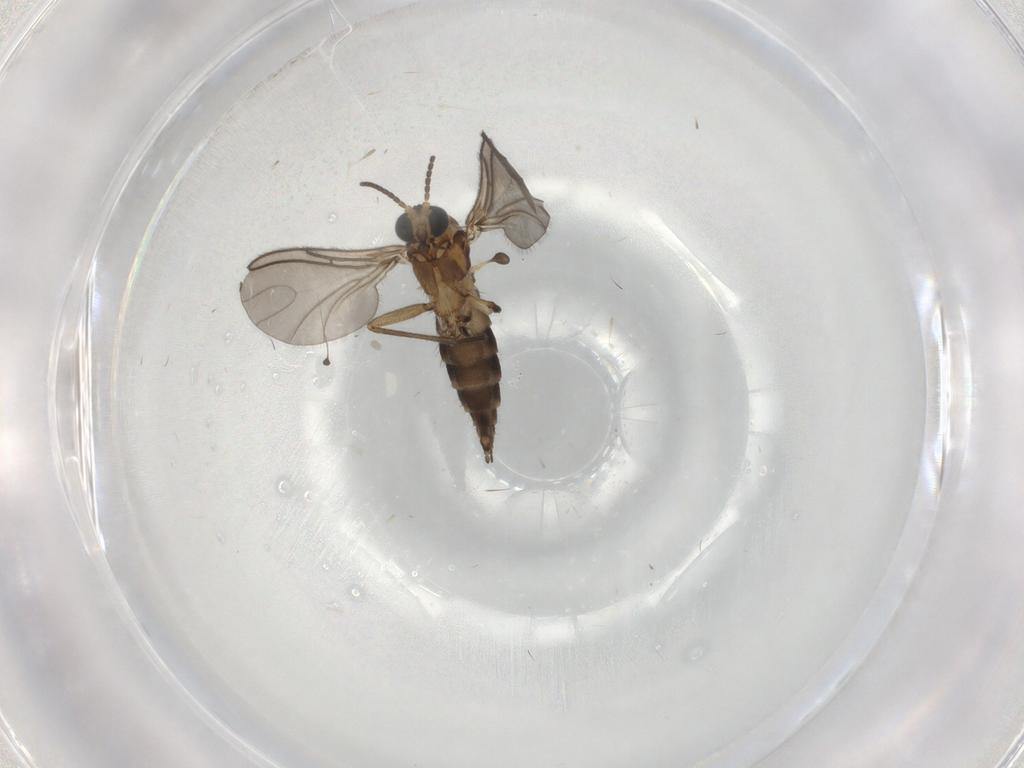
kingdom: Animalia
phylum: Arthropoda
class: Insecta
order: Diptera
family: Sciaridae
